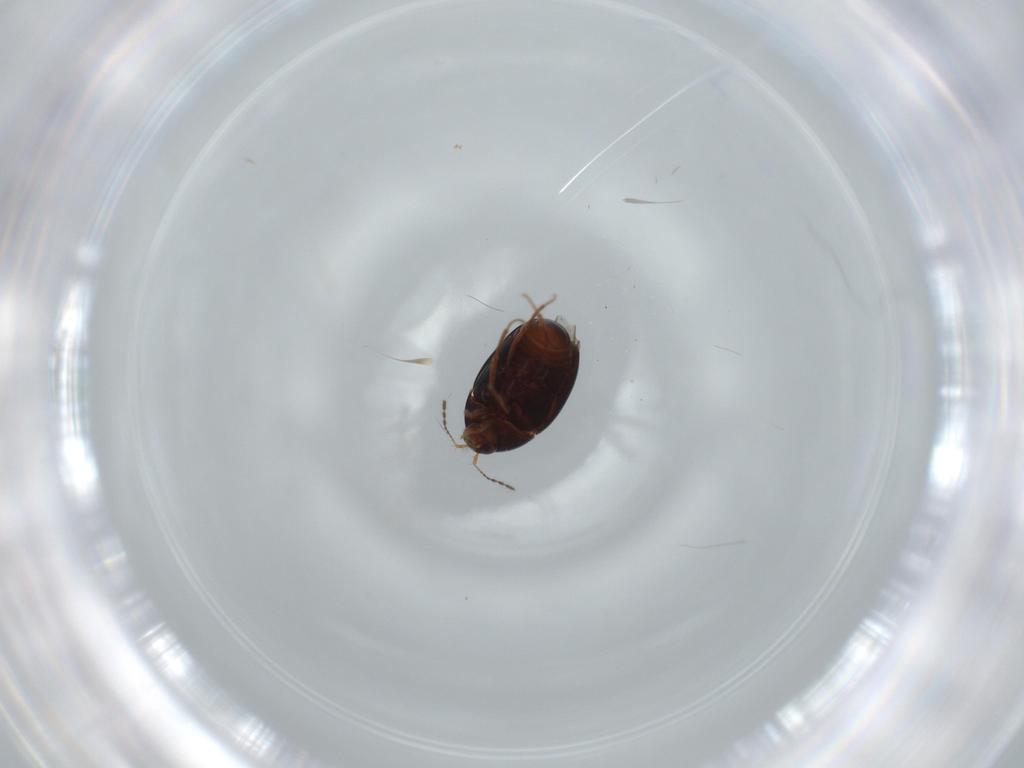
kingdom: Animalia
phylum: Arthropoda
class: Insecta
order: Coleoptera
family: Staphylinidae
